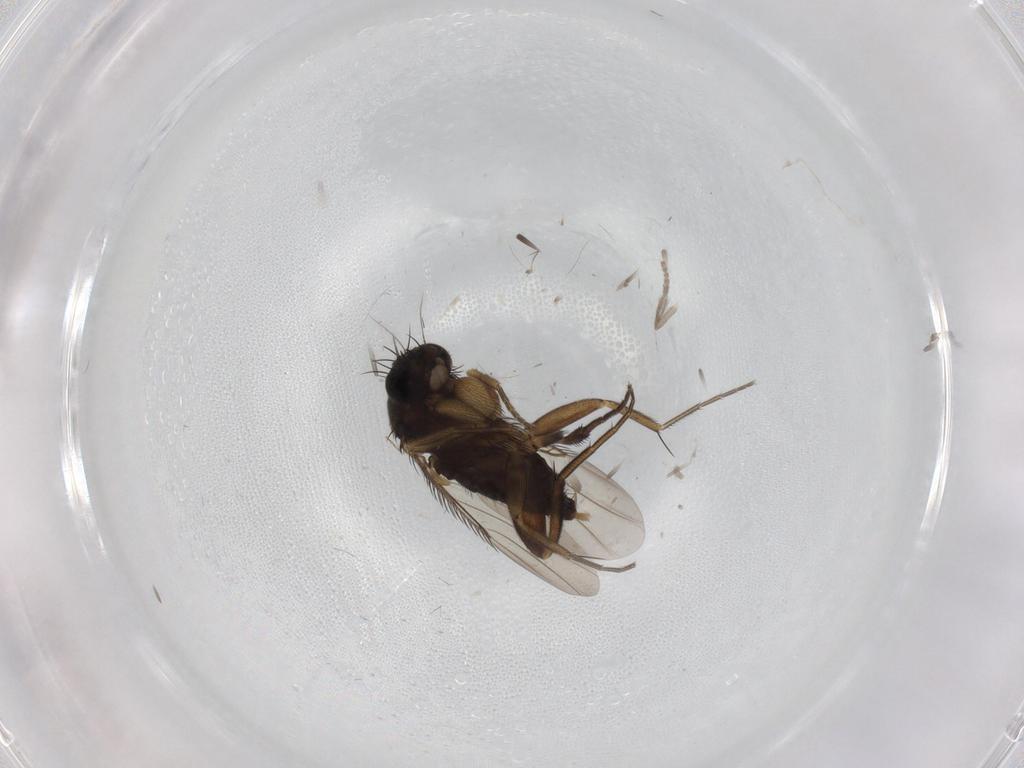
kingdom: Animalia
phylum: Arthropoda
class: Insecta
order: Diptera
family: Phoridae
